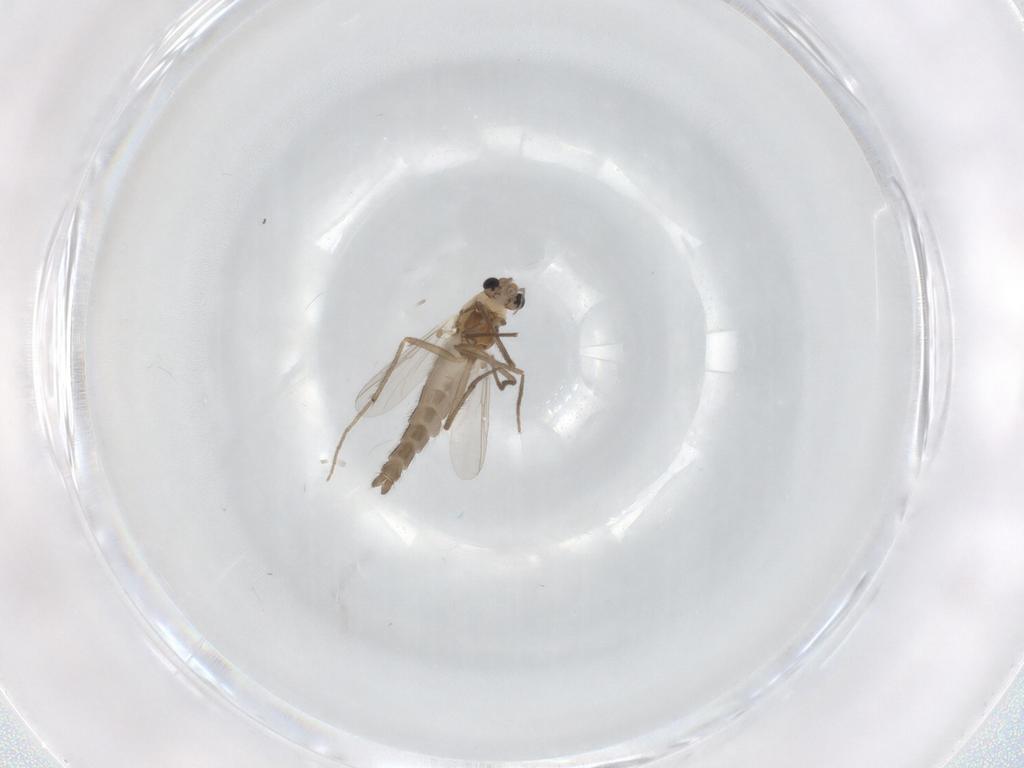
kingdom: Animalia
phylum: Arthropoda
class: Insecta
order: Diptera
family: Chironomidae
